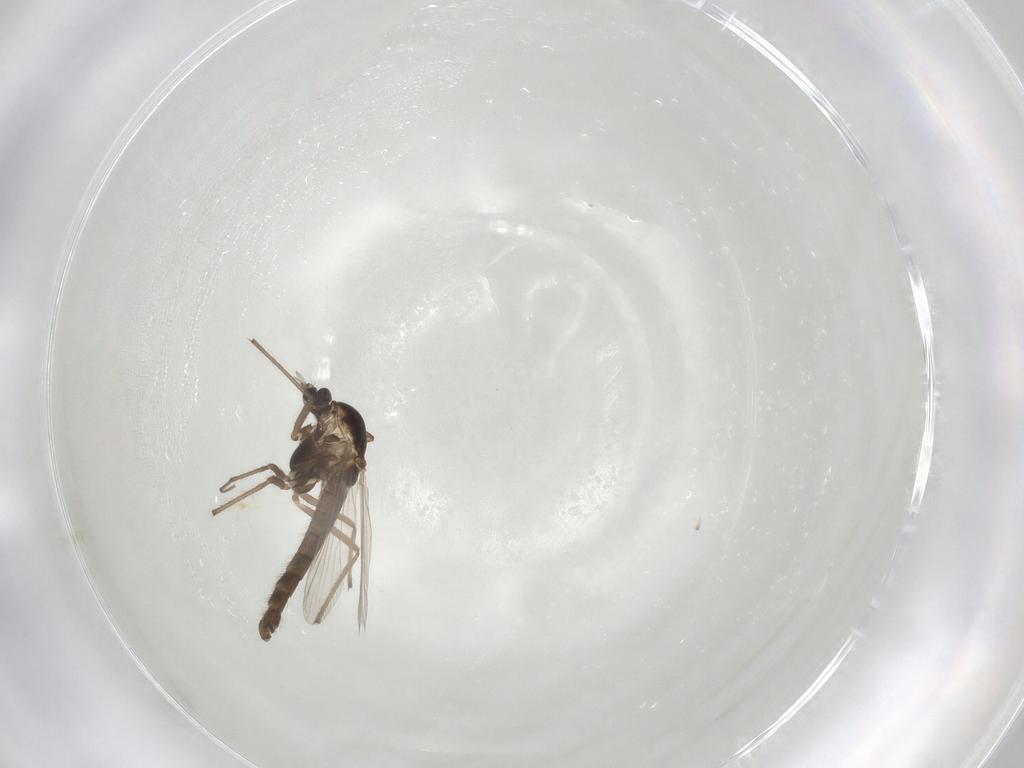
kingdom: Animalia
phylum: Arthropoda
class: Insecta
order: Diptera
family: Chironomidae
